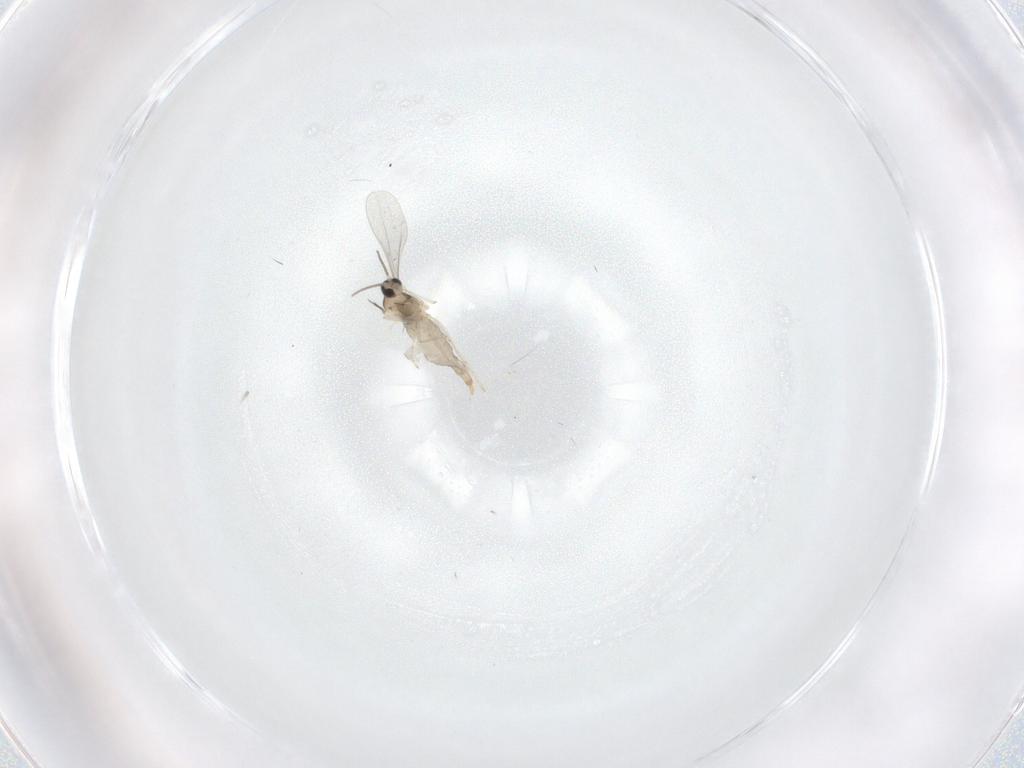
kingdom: Animalia
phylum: Arthropoda
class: Insecta
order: Diptera
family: Cecidomyiidae
